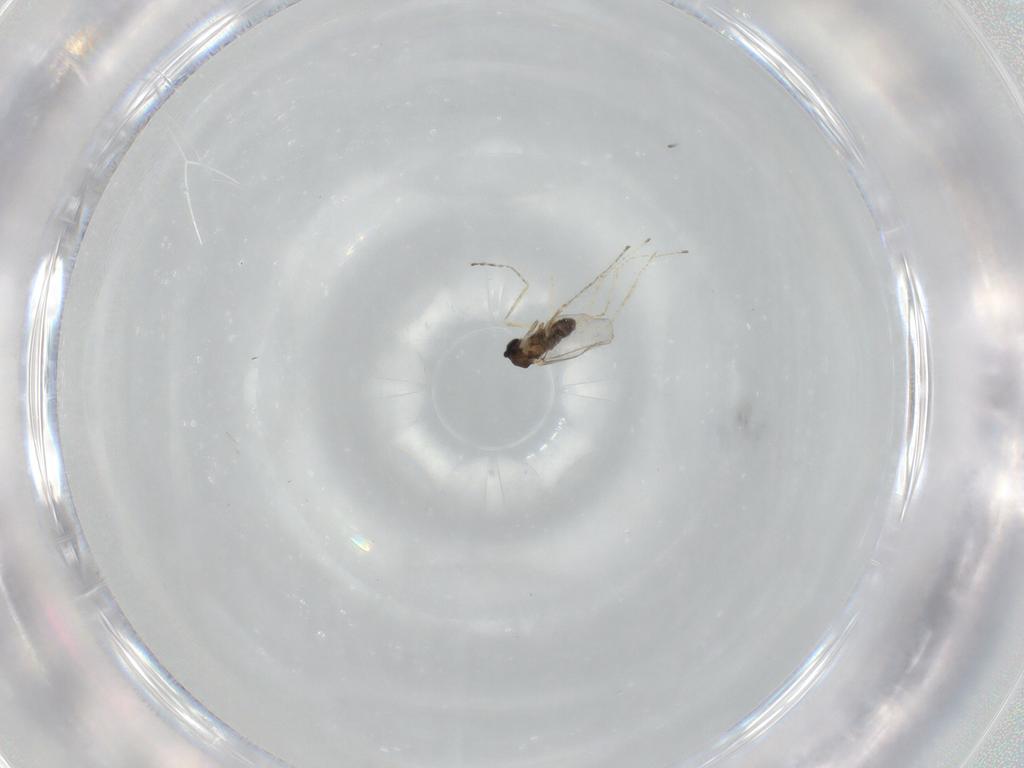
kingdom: Animalia
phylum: Arthropoda
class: Insecta
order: Diptera
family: Cecidomyiidae
